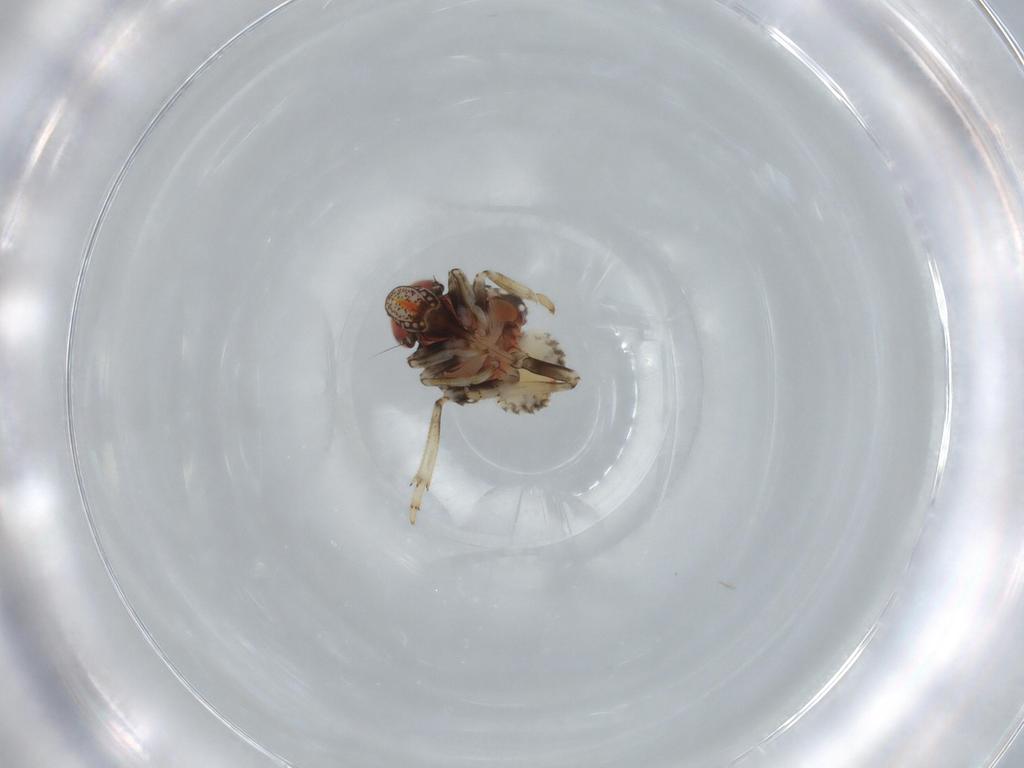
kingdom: Animalia
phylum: Arthropoda
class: Insecta
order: Hemiptera
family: Issidae
